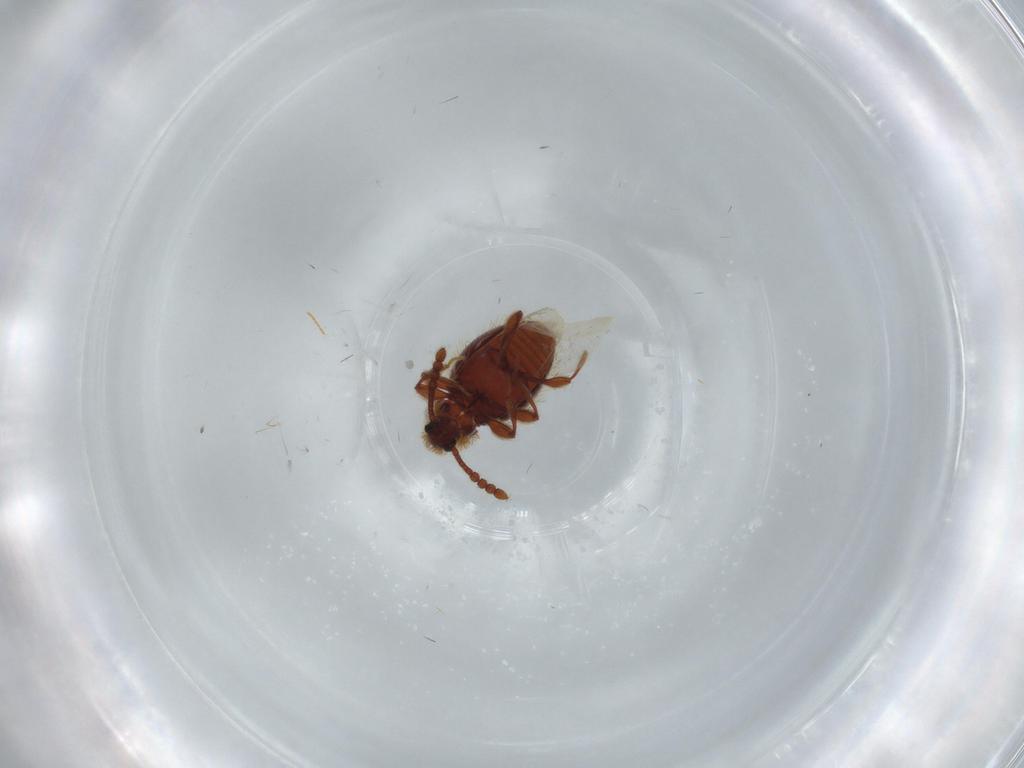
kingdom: Animalia
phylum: Arthropoda
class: Insecta
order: Coleoptera
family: Staphylinidae
